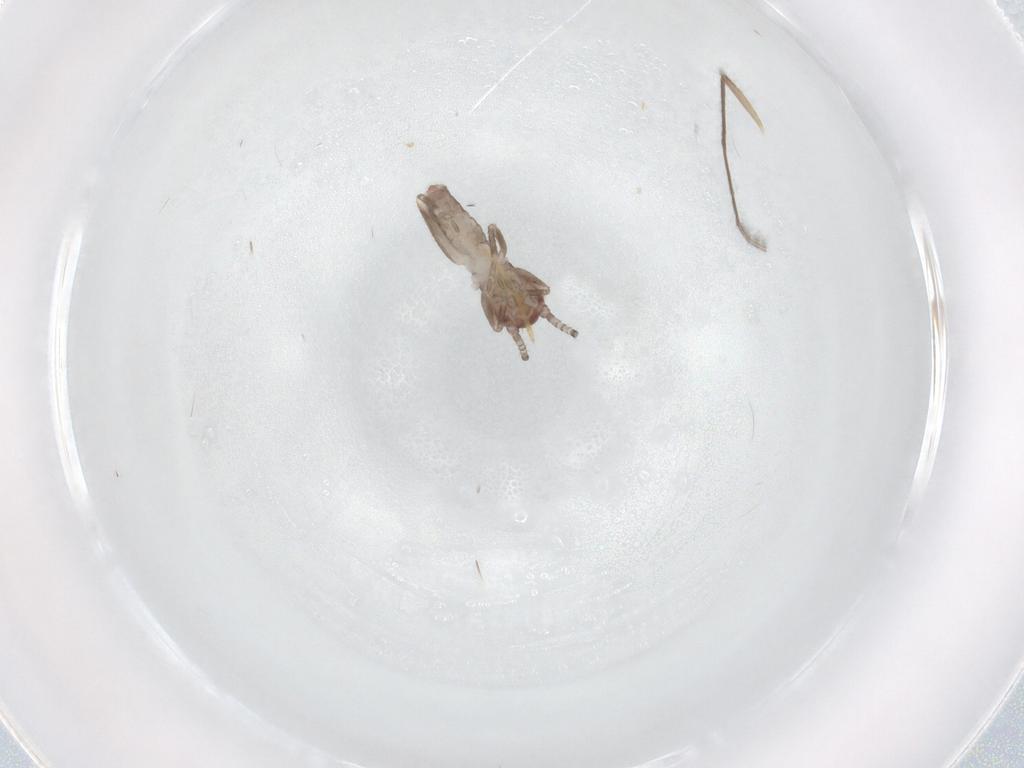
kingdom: Animalia
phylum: Arthropoda
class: Insecta
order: Orthoptera
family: Mogoplistidae
